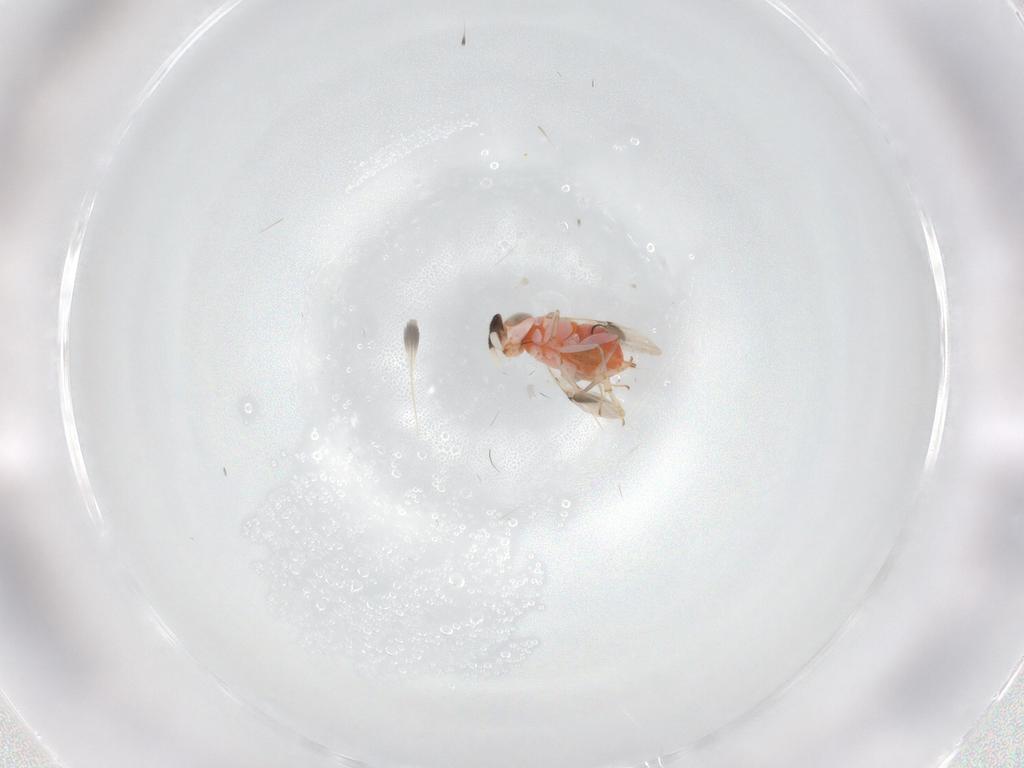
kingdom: Animalia
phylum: Arthropoda
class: Insecta
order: Hymenoptera
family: Encyrtidae
